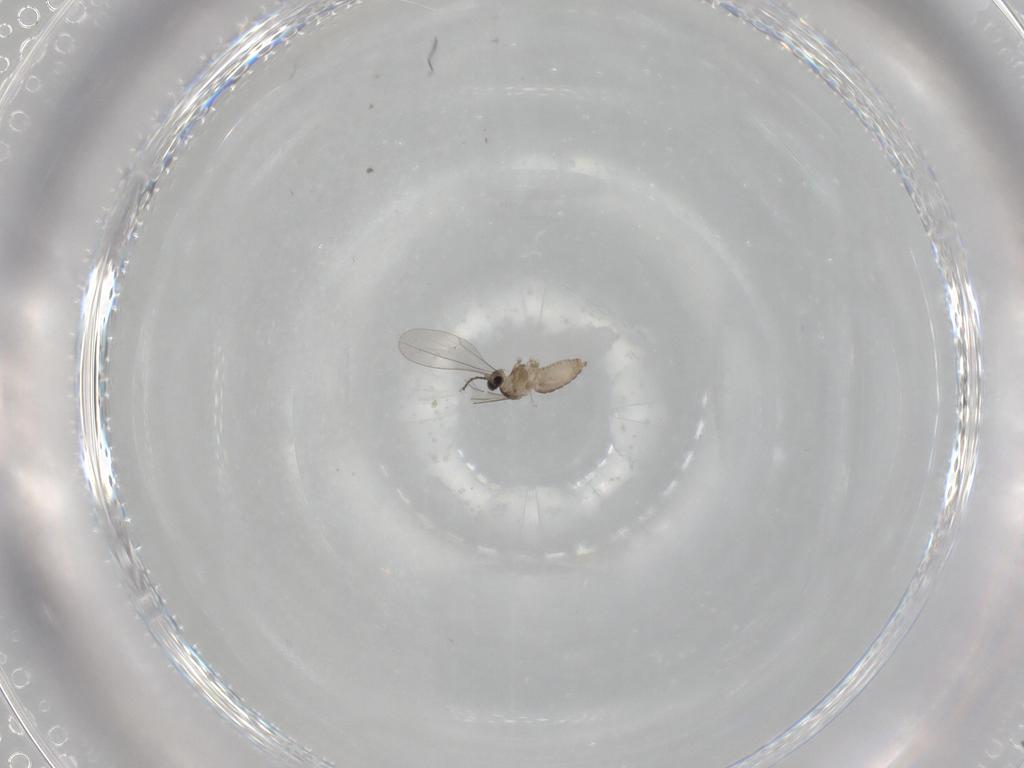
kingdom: Animalia
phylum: Arthropoda
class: Insecta
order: Diptera
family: Cecidomyiidae
